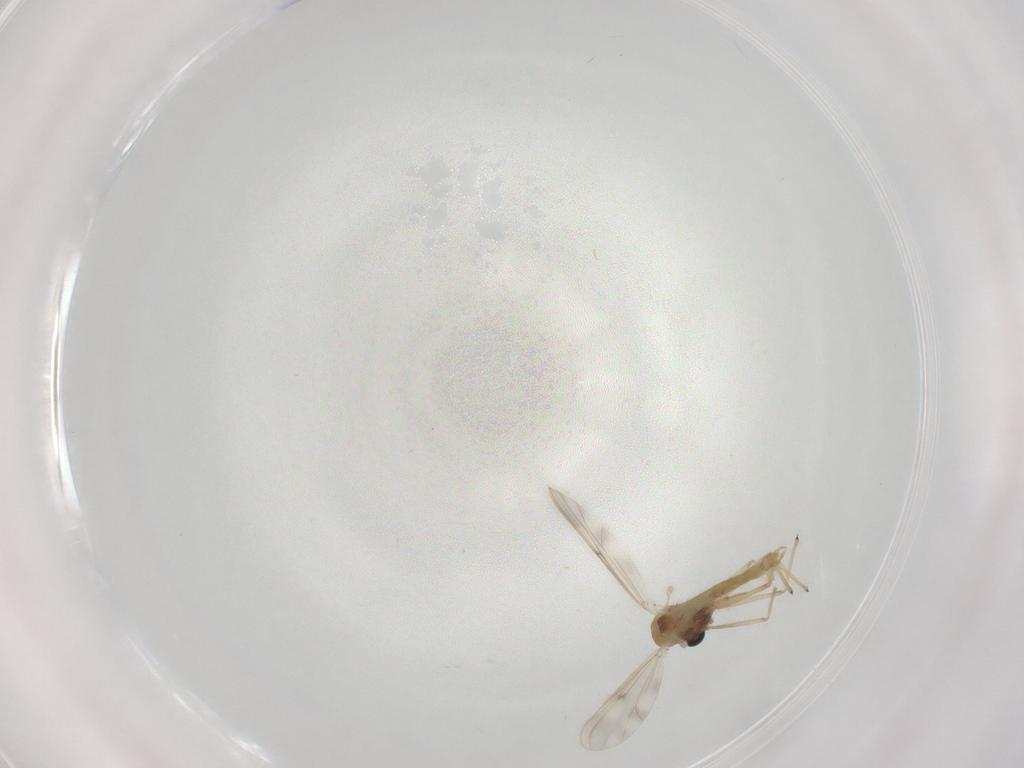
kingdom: Animalia
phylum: Arthropoda
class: Insecta
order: Diptera
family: Chironomidae
